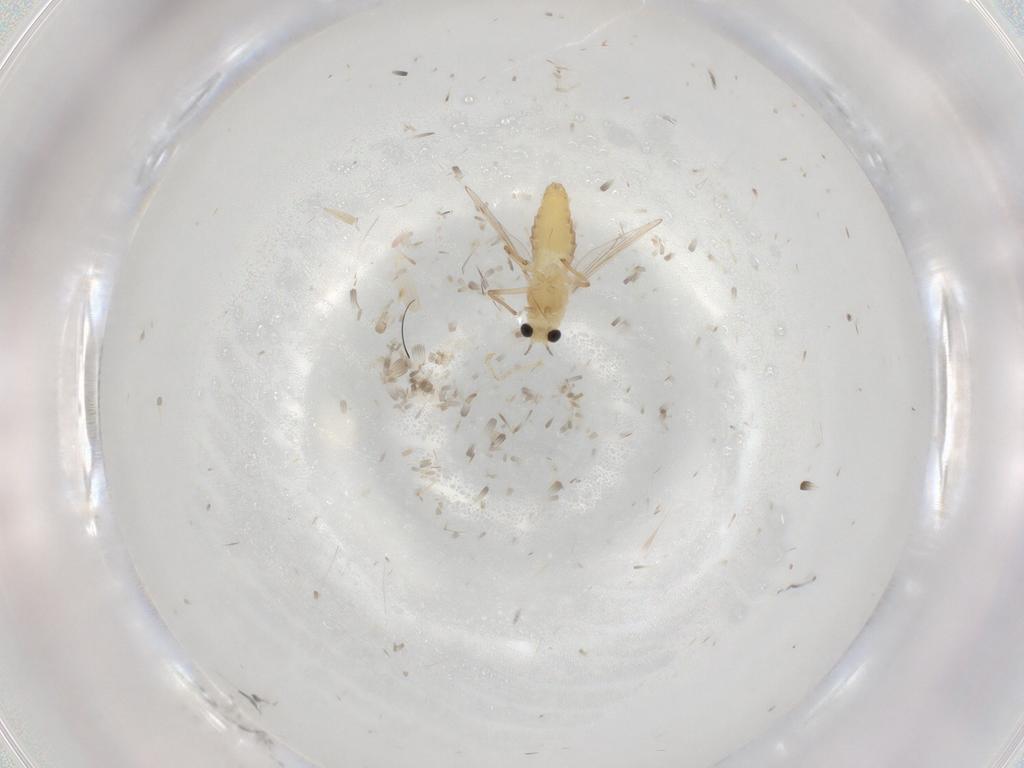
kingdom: Animalia
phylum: Arthropoda
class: Insecta
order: Diptera
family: Chironomidae
